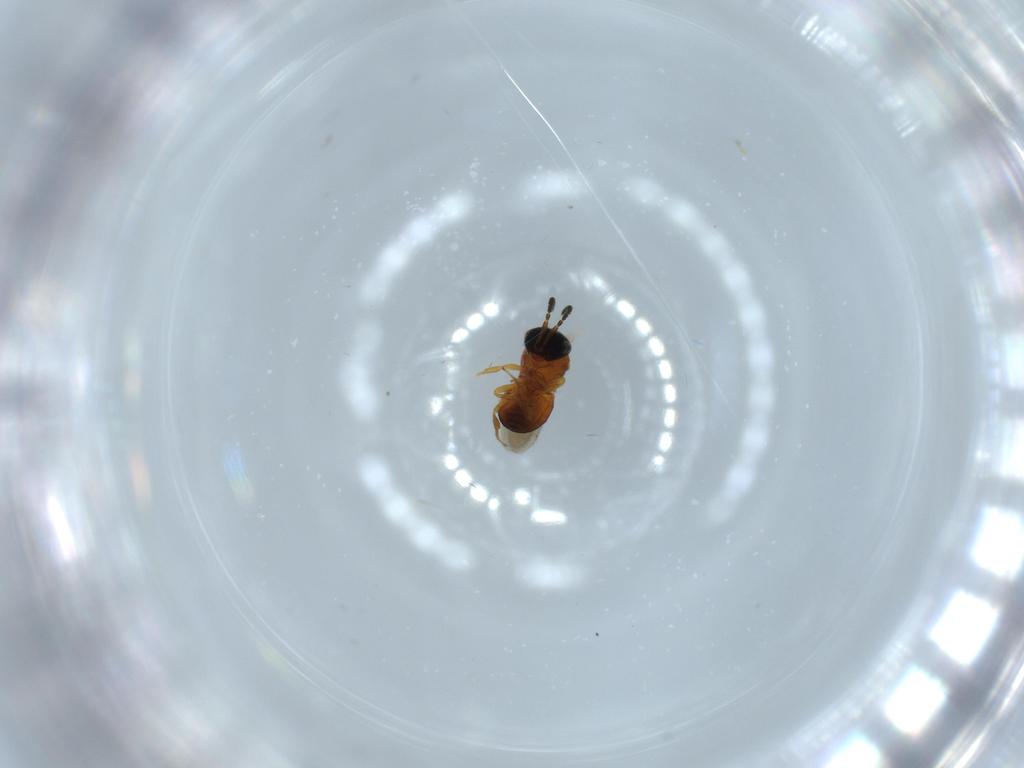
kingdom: Animalia
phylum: Arthropoda
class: Insecta
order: Hymenoptera
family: Scelionidae
